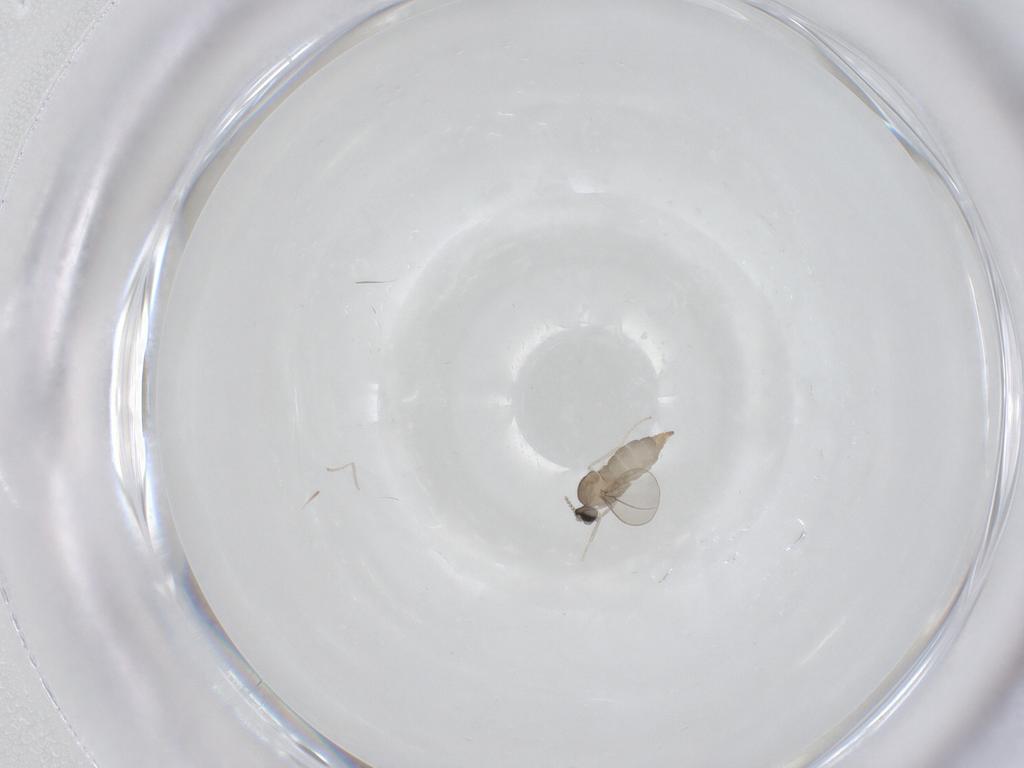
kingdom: Animalia
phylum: Arthropoda
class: Insecta
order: Diptera
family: Cecidomyiidae
